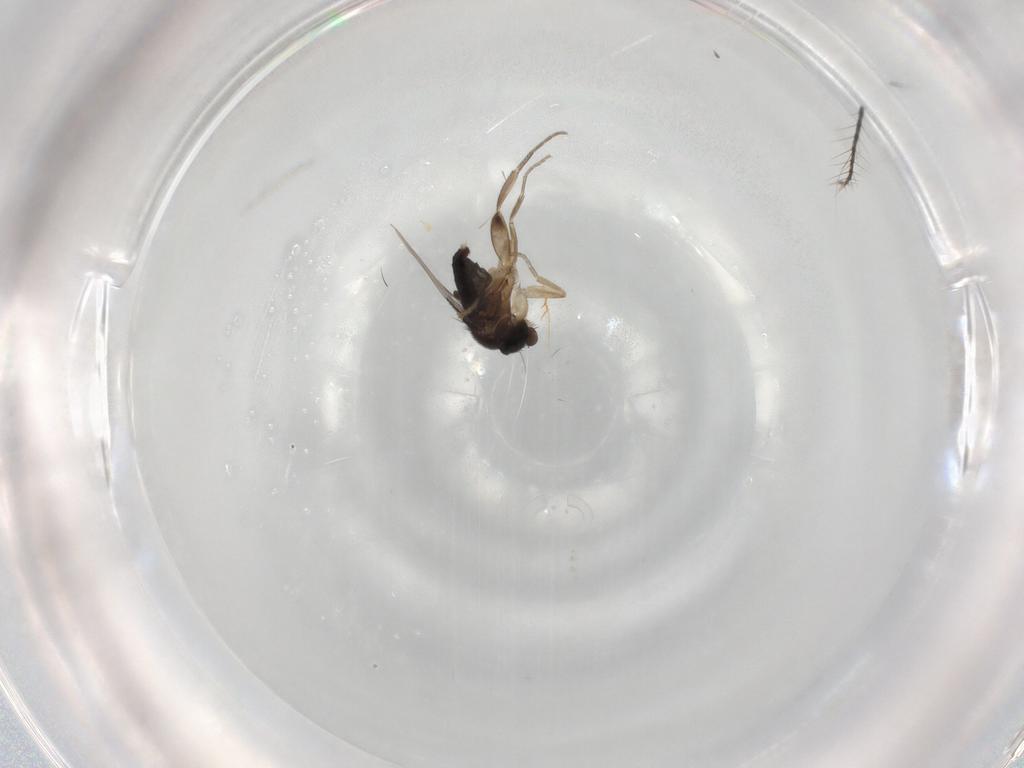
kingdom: Animalia
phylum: Arthropoda
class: Insecta
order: Diptera
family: Phoridae
